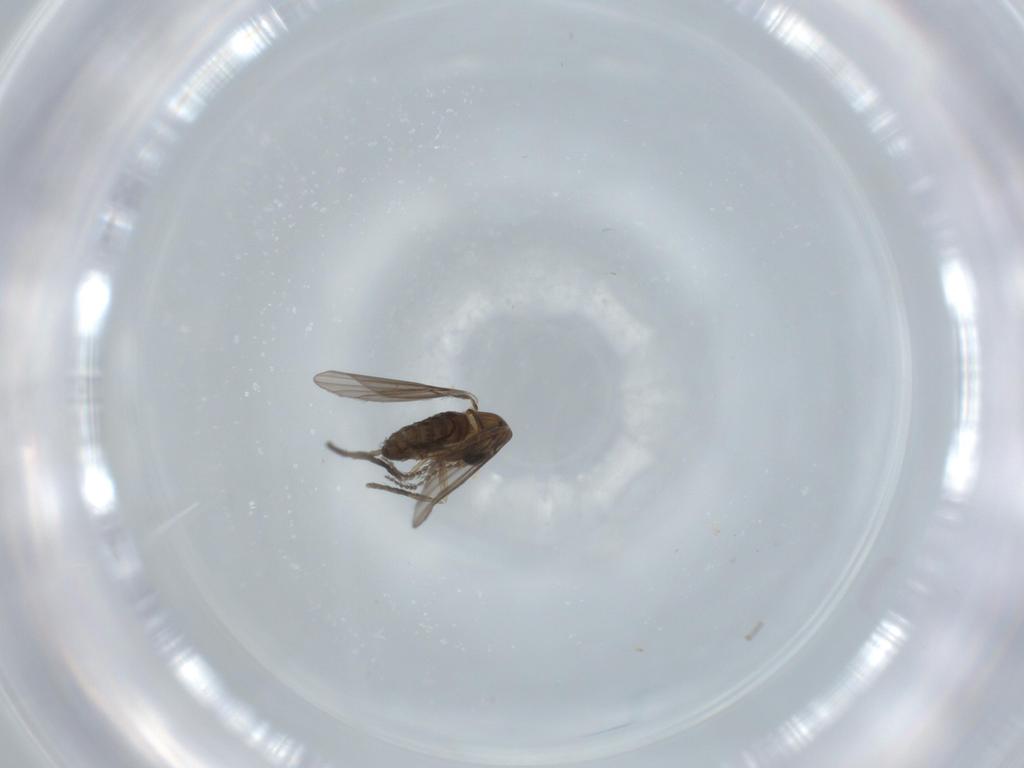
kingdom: Animalia
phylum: Arthropoda
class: Insecta
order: Diptera
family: Psychodidae
